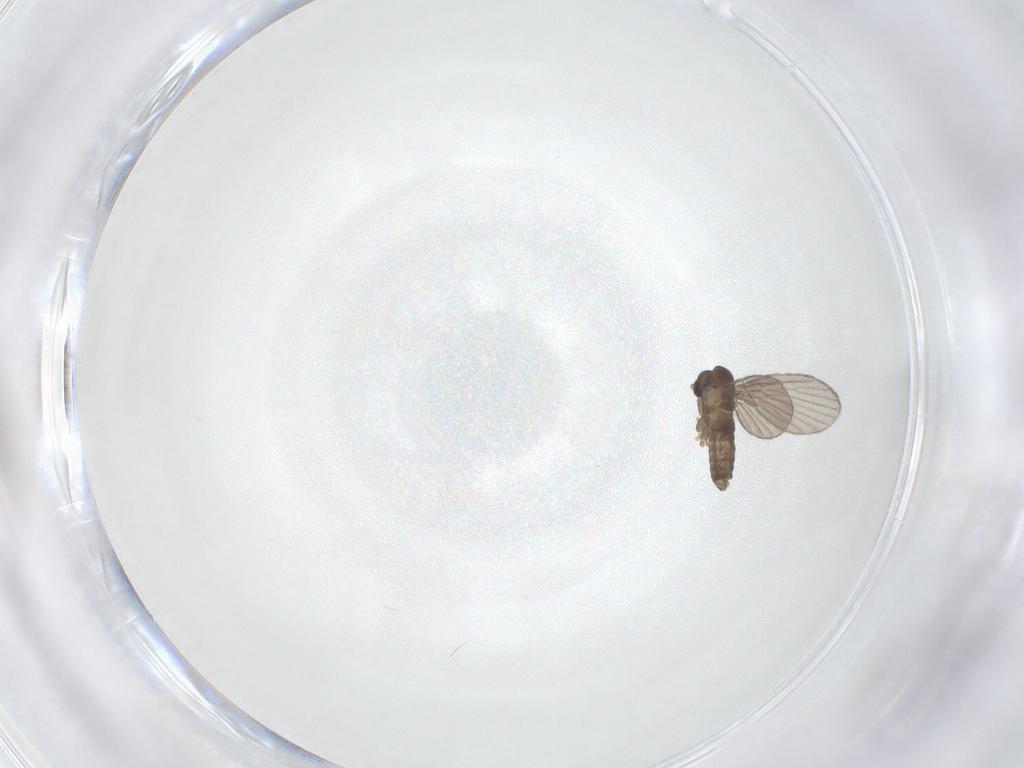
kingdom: Animalia
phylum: Arthropoda
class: Insecta
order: Diptera
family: Cecidomyiidae
